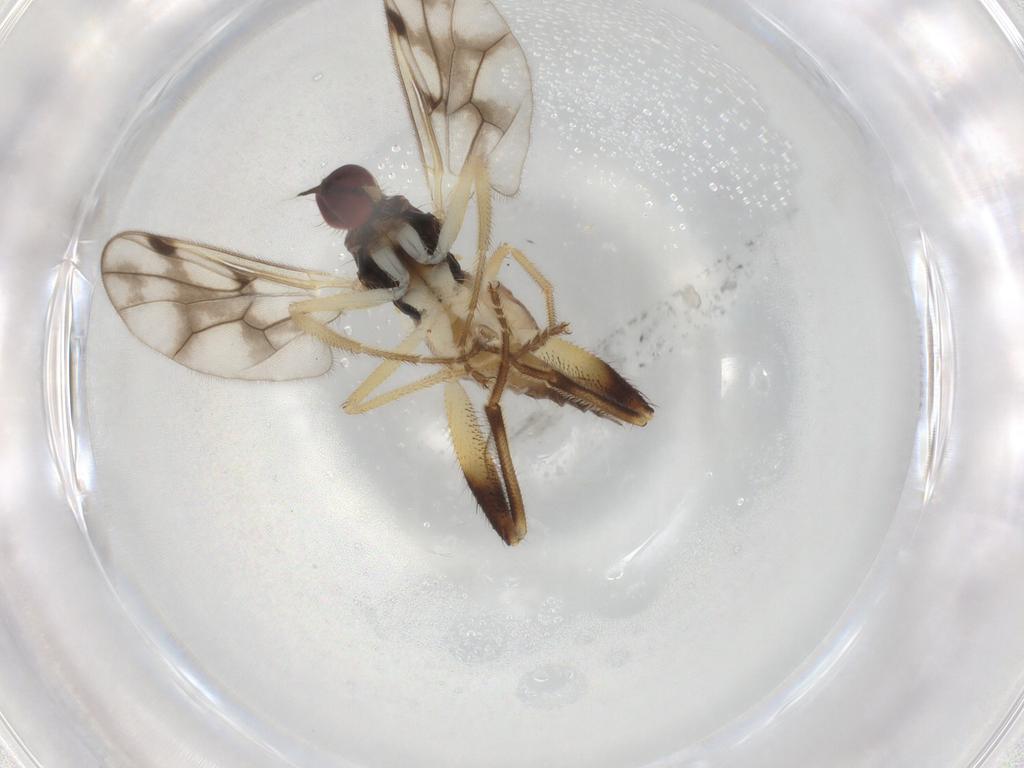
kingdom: Animalia
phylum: Arthropoda
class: Insecta
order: Diptera
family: Hybotidae
